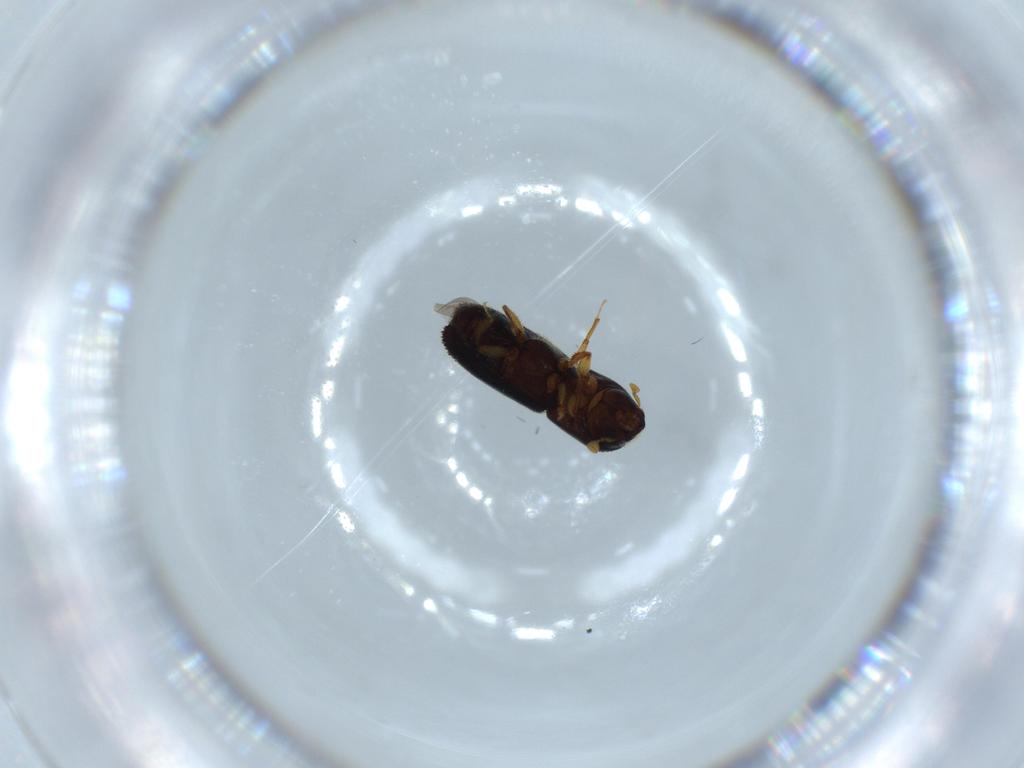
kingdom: Animalia
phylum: Arthropoda
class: Insecta
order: Coleoptera
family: Curculionidae
